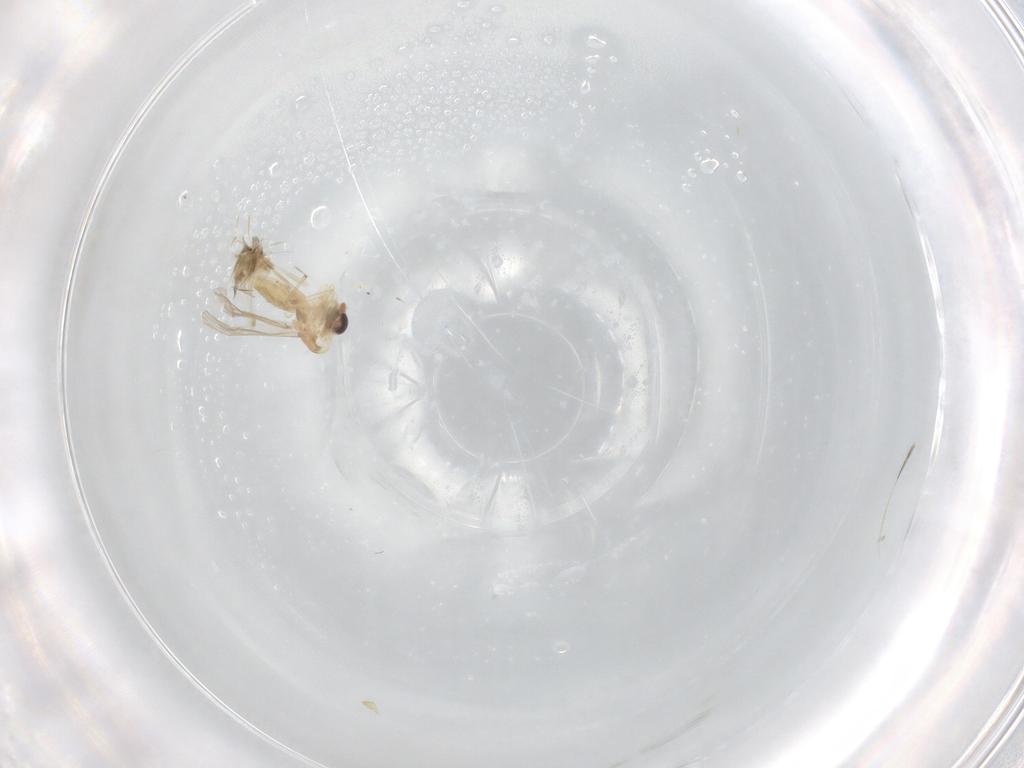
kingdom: Animalia
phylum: Arthropoda
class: Insecta
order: Diptera
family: Chironomidae
